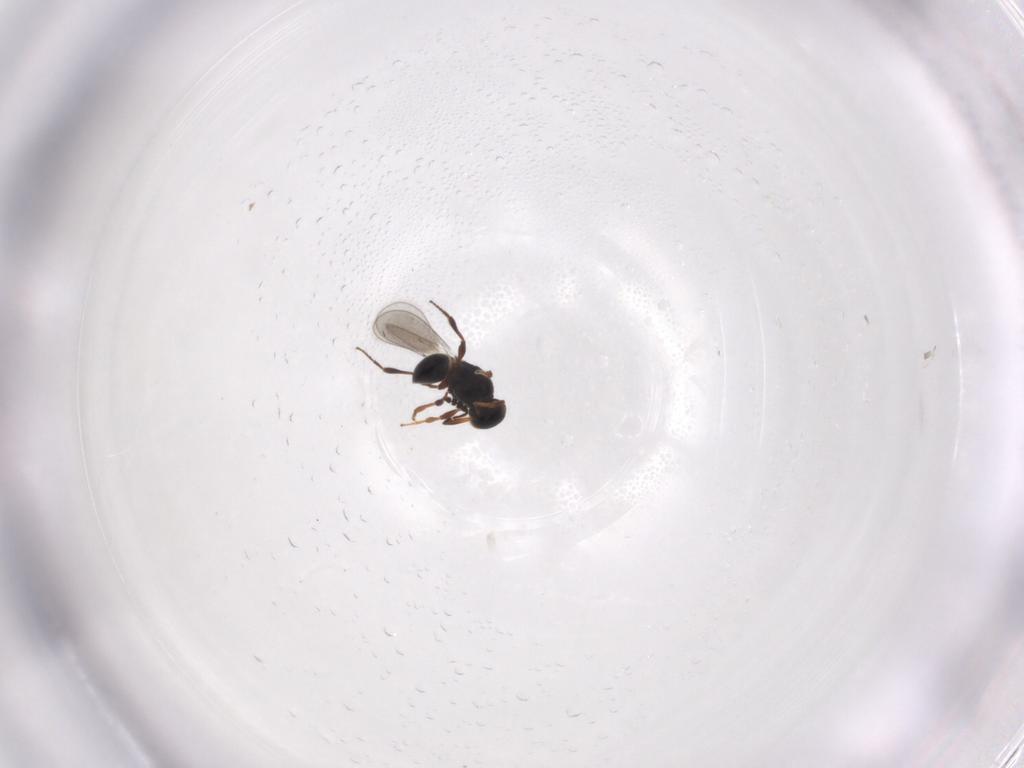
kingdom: Animalia
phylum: Arthropoda
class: Insecta
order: Hymenoptera
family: Platygastridae
